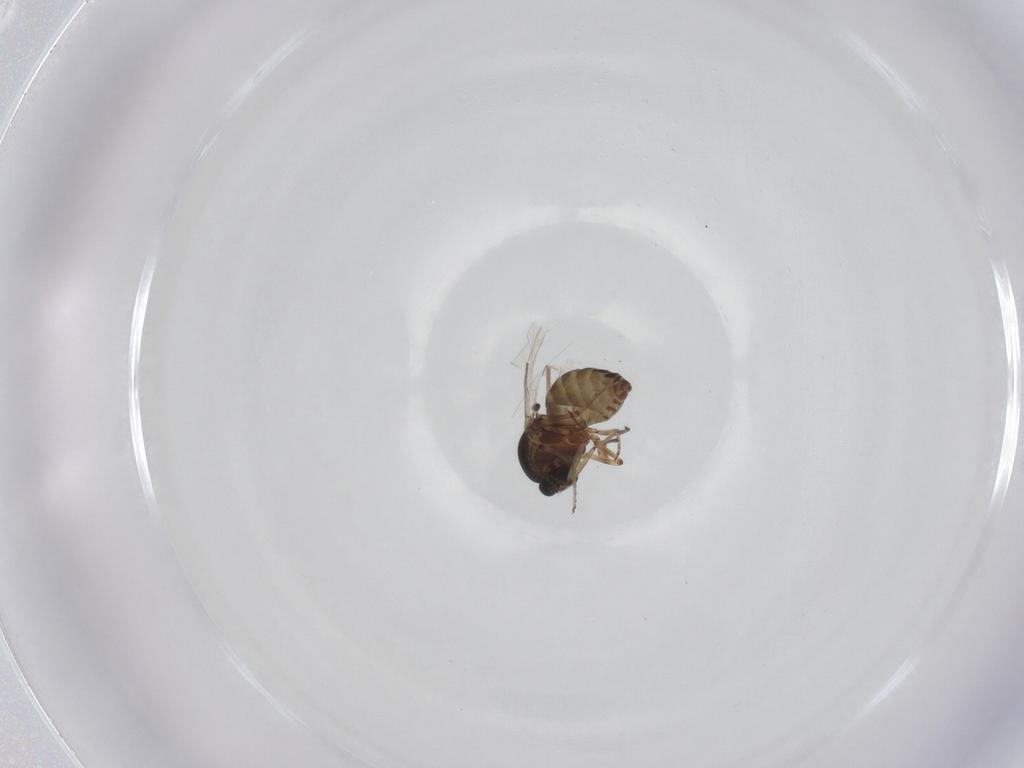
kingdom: Animalia
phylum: Arthropoda
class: Insecta
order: Diptera
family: Ceratopogonidae
